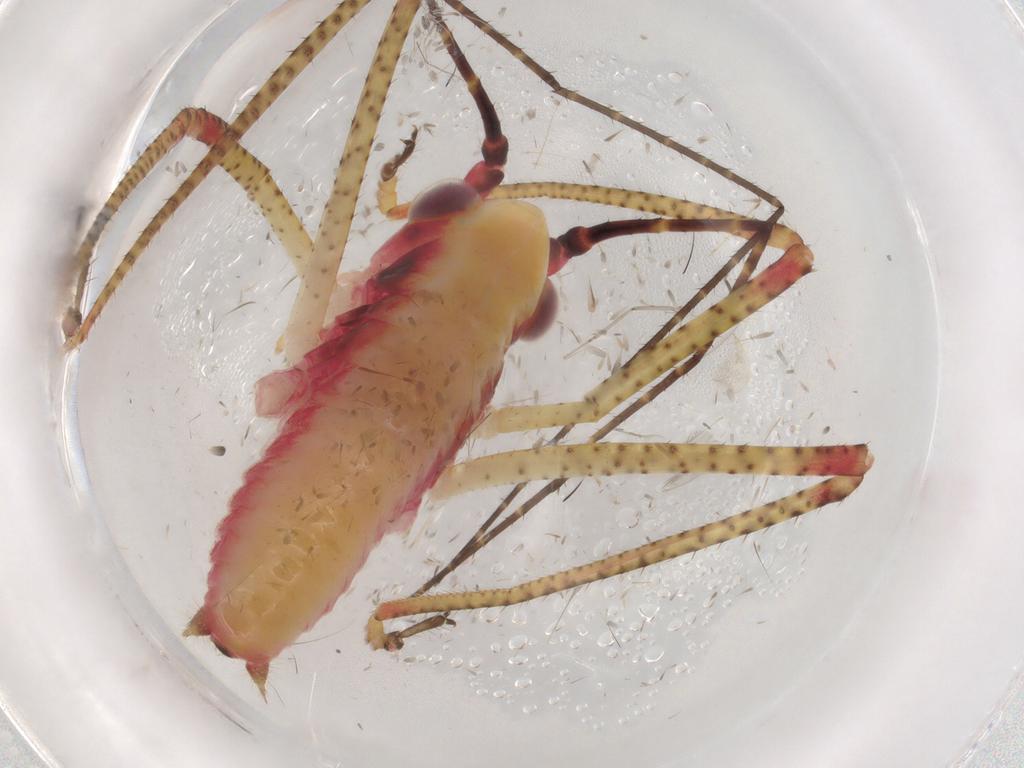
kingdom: Animalia
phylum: Arthropoda
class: Insecta
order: Orthoptera
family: Tettigoniidae
